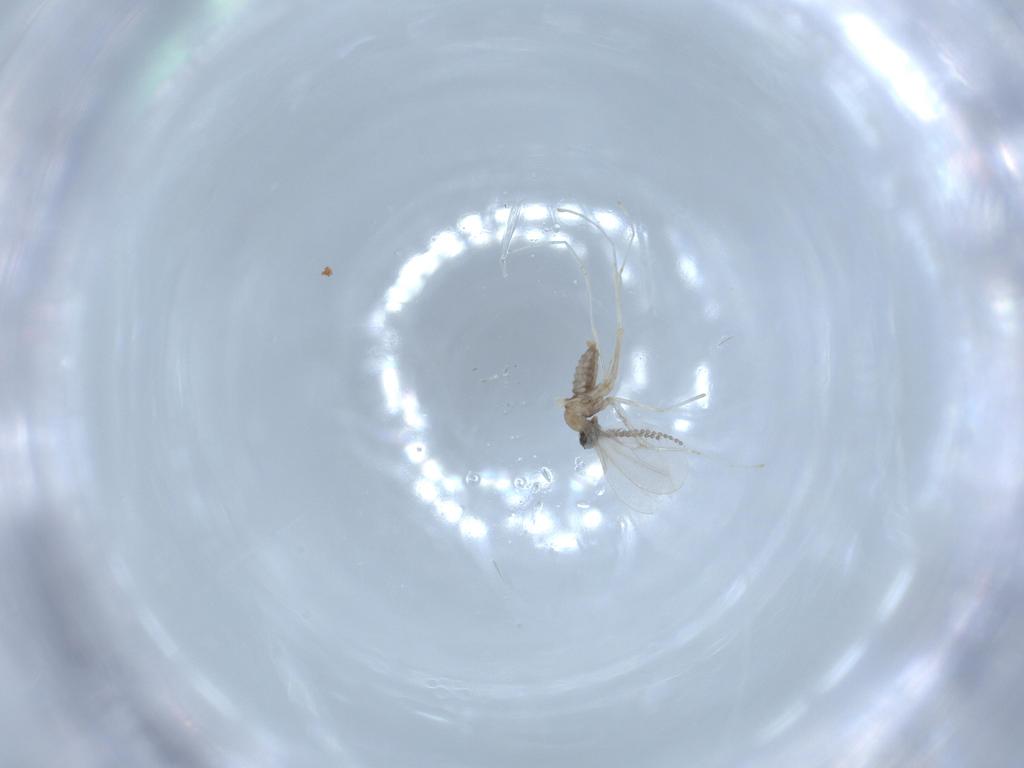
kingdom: Animalia
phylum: Arthropoda
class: Insecta
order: Diptera
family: Cecidomyiidae
